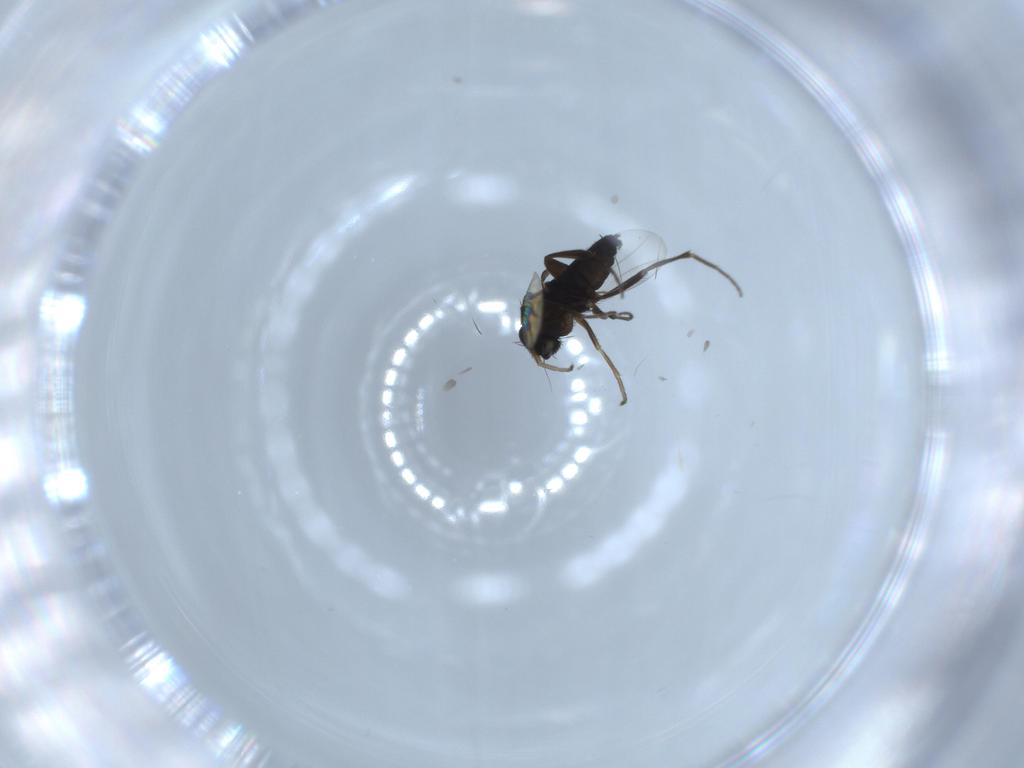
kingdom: Animalia
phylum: Arthropoda
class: Insecta
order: Diptera
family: Phoridae
